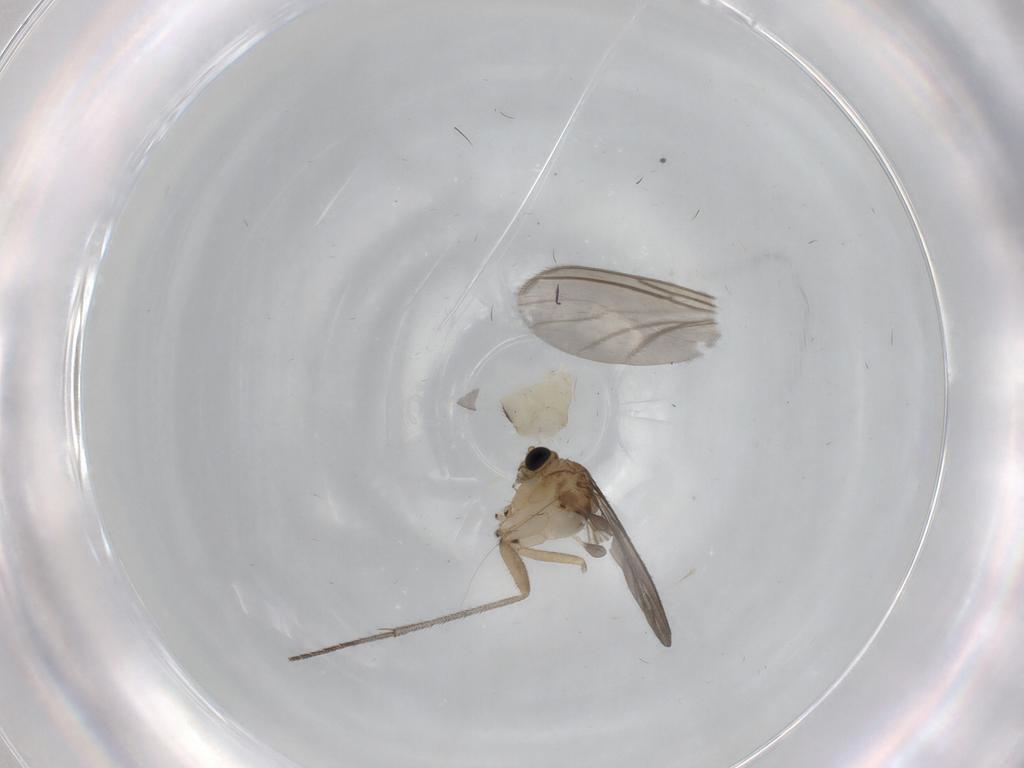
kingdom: Animalia
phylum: Arthropoda
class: Insecta
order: Diptera
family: Sciaridae
